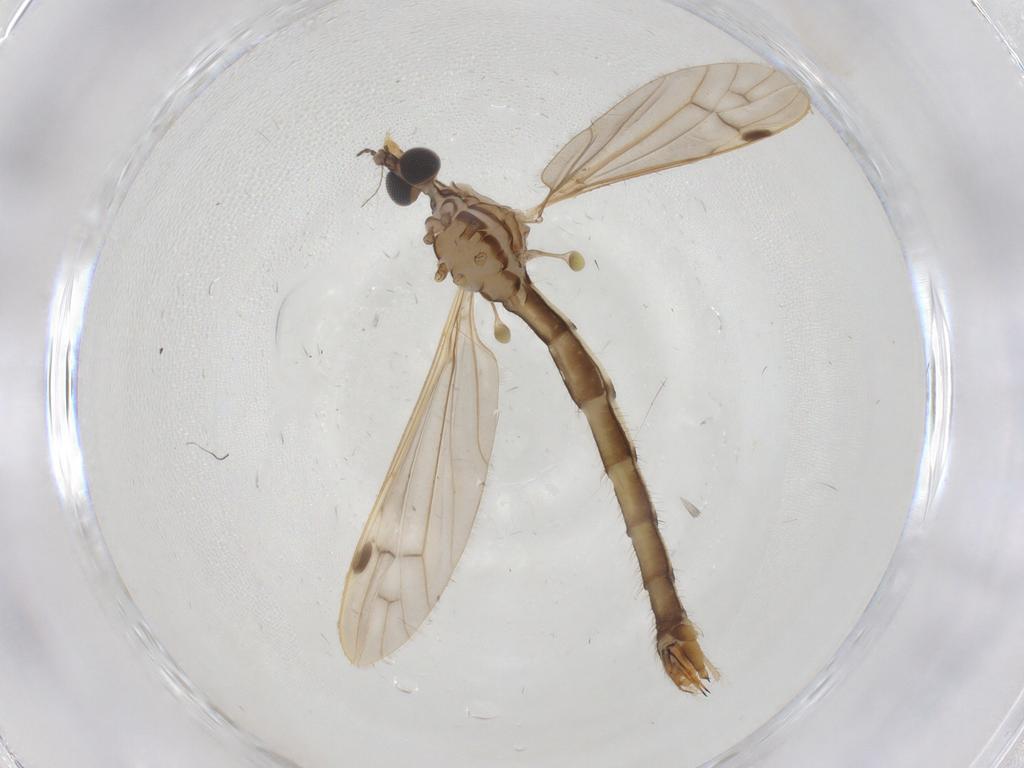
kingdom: Animalia
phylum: Arthropoda
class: Insecta
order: Diptera
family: Limoniidae
